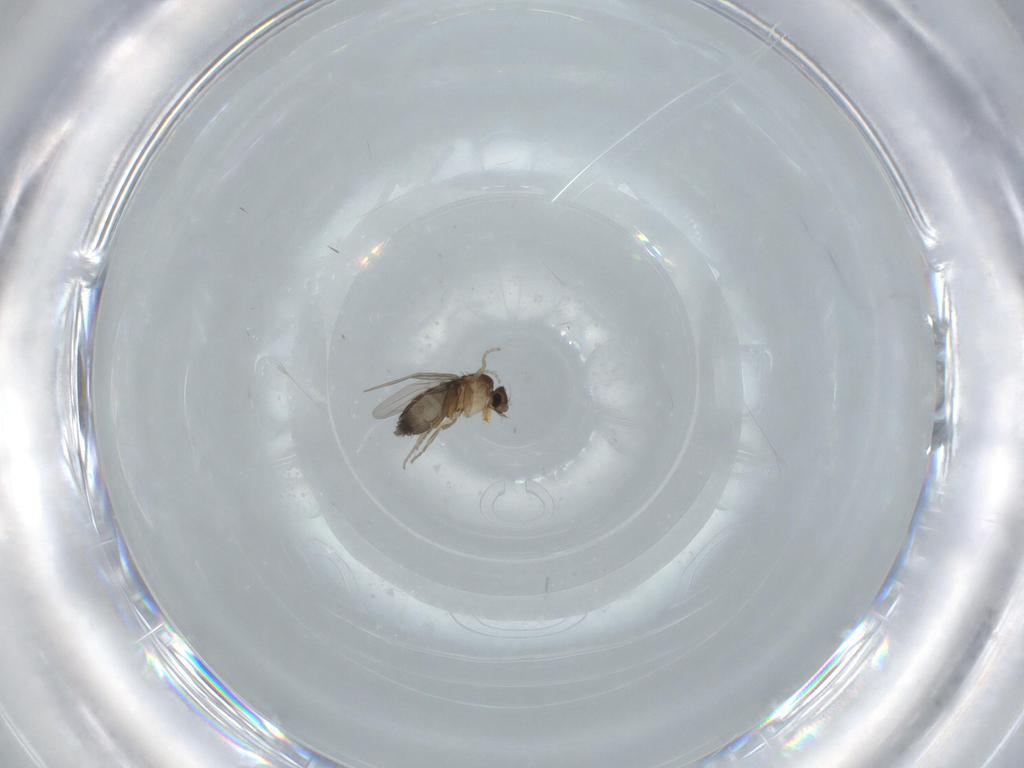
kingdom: Animalia
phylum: Arthropoda
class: Insecta
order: Diptera
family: Phoridae
